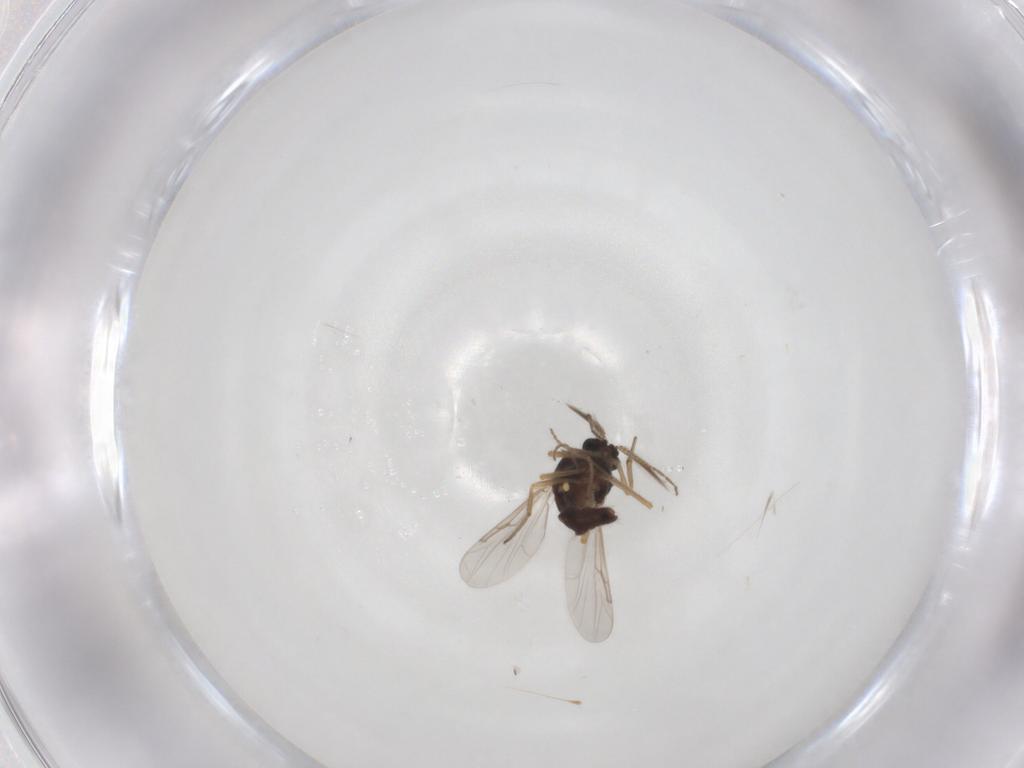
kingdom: Animalia
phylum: Arthropoda
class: Insecta
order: Diptera
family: Ceratopogonidae
